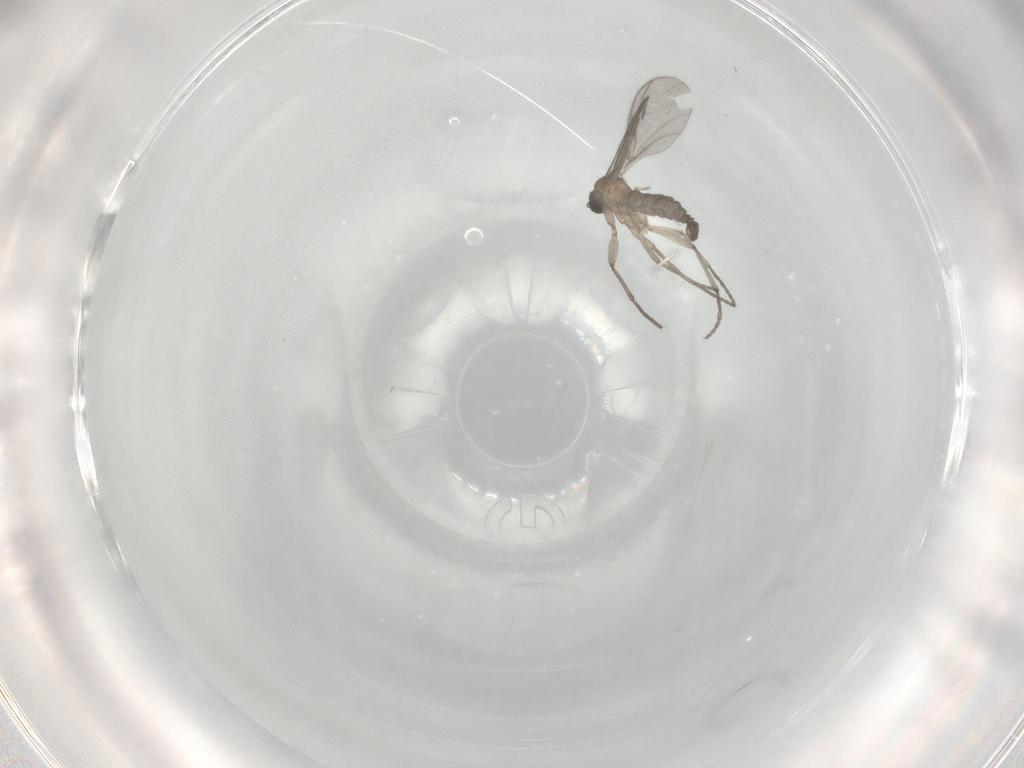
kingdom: Animalia
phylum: Arthropoda
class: Insecta
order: Diptera
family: Sciaridae
